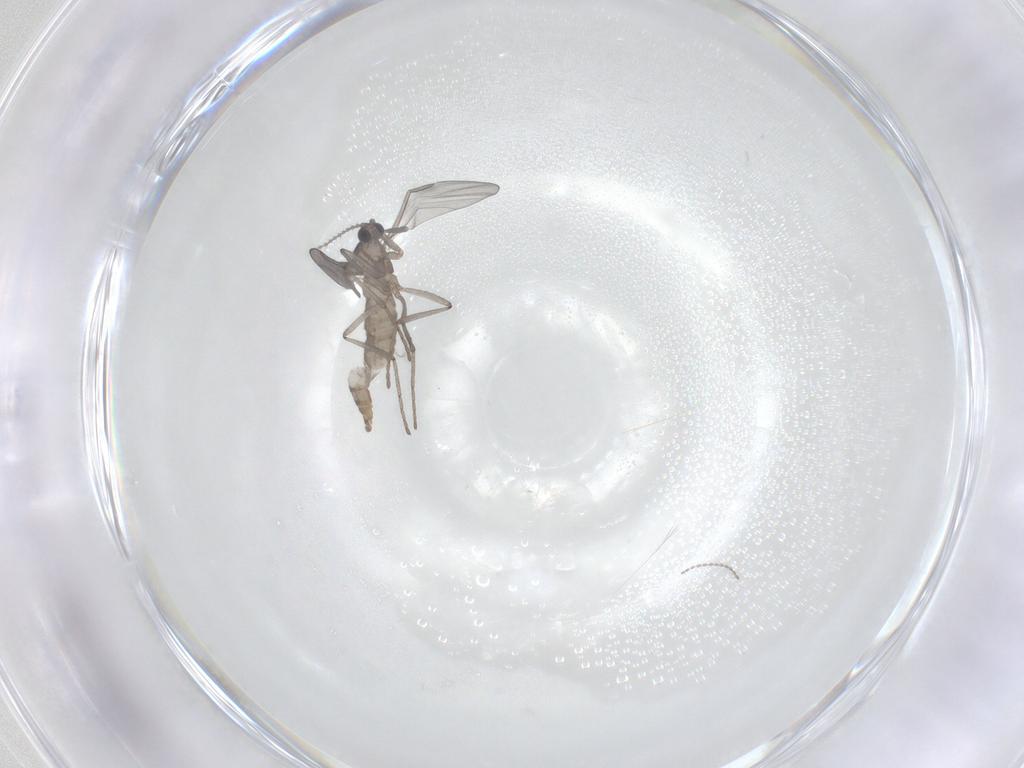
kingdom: Animalia
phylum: Arthropoda
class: Insecta
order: Diptera
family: Cecidomyiidae
